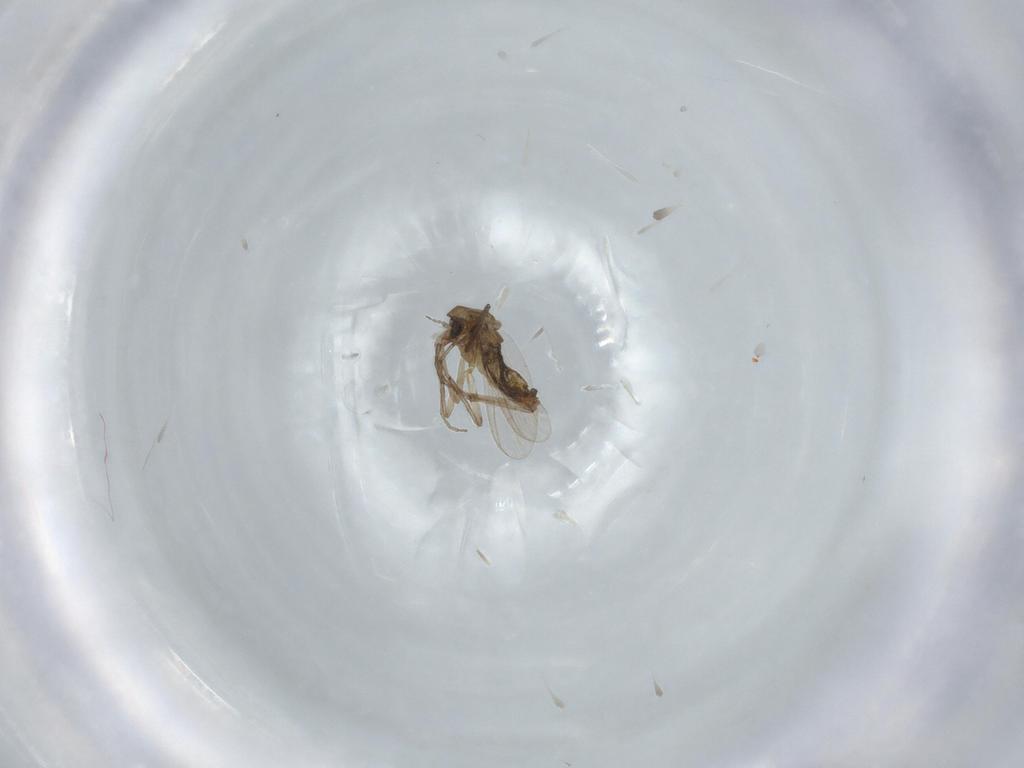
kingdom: Animalia
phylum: Arthropoda
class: Insecta
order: Diptera
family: Chironomidae
